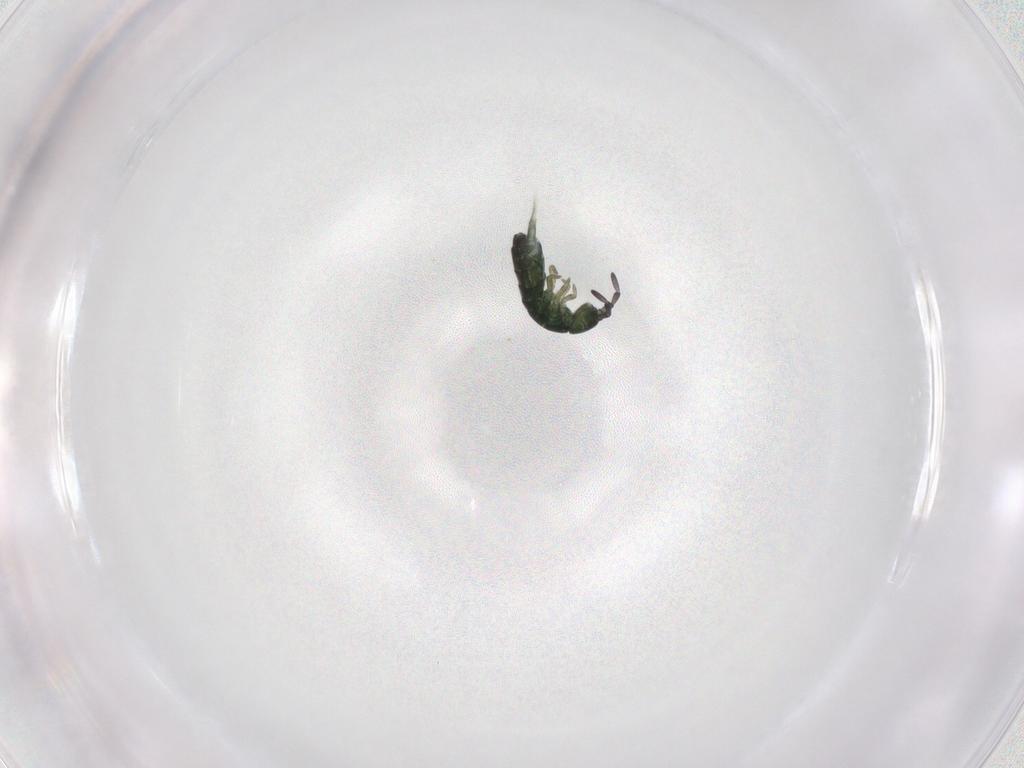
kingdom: Animalia
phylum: Arthropoda
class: Collembola
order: Entomobryomorpha
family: Isotomidae
